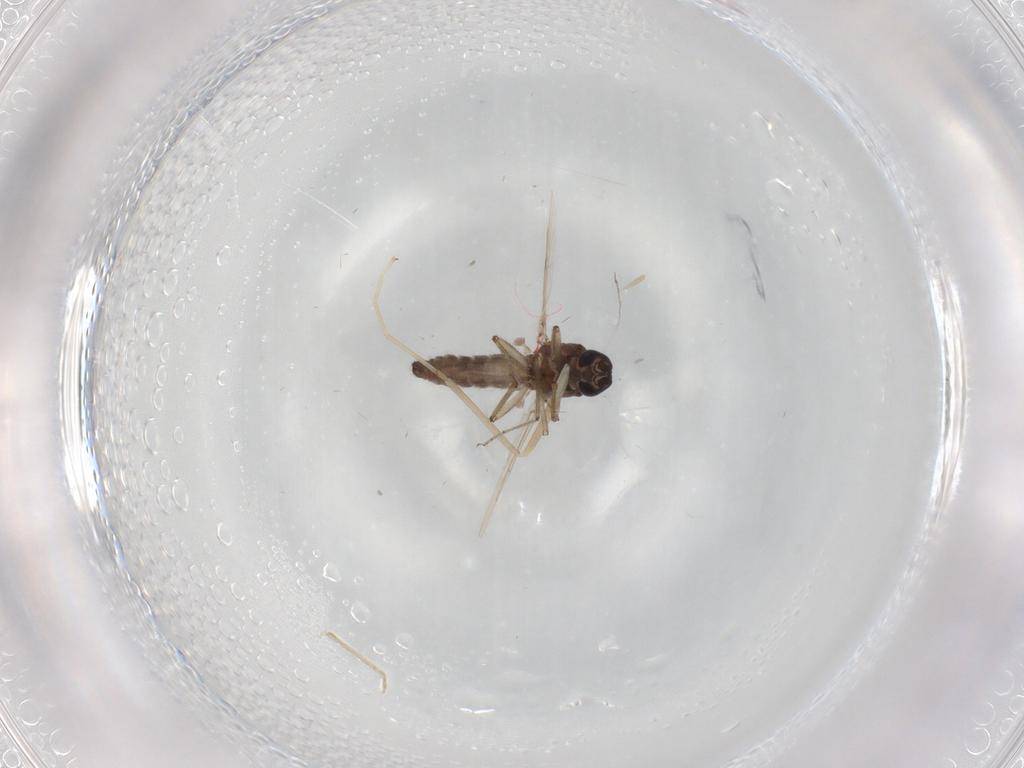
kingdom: Animalia
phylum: Arthropoda
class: Insecta
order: Diptera
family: Ceratopogonidae
